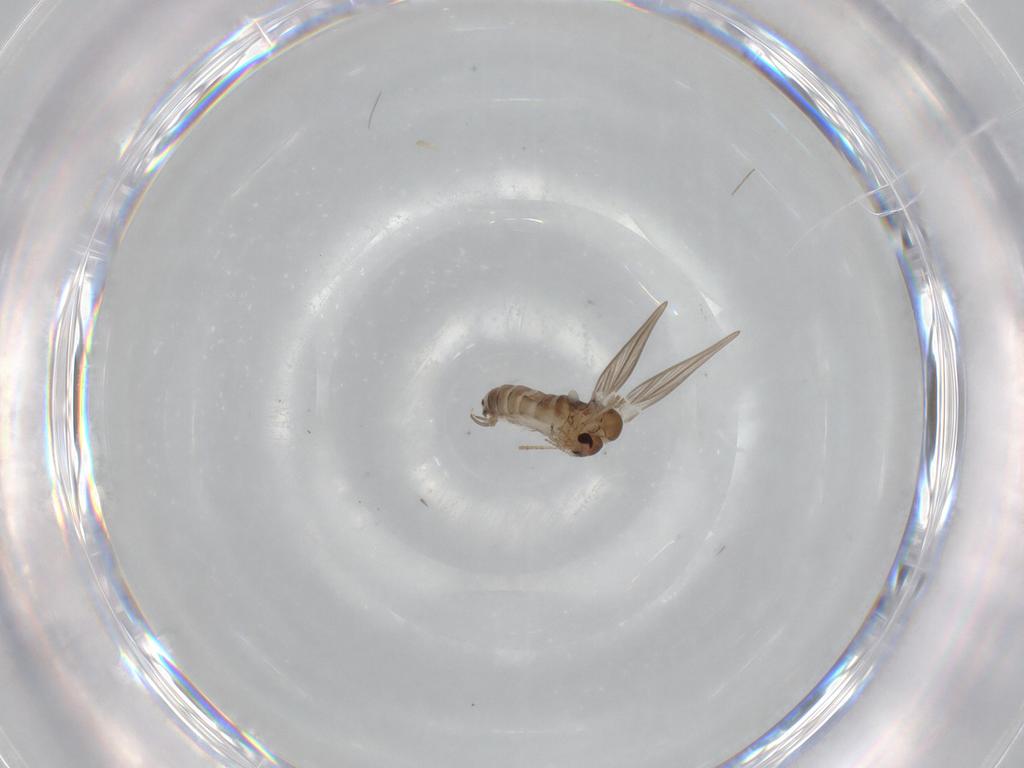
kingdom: Animalia
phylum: Arthropoda
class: Insecta
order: Diptera
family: Psychodidae
